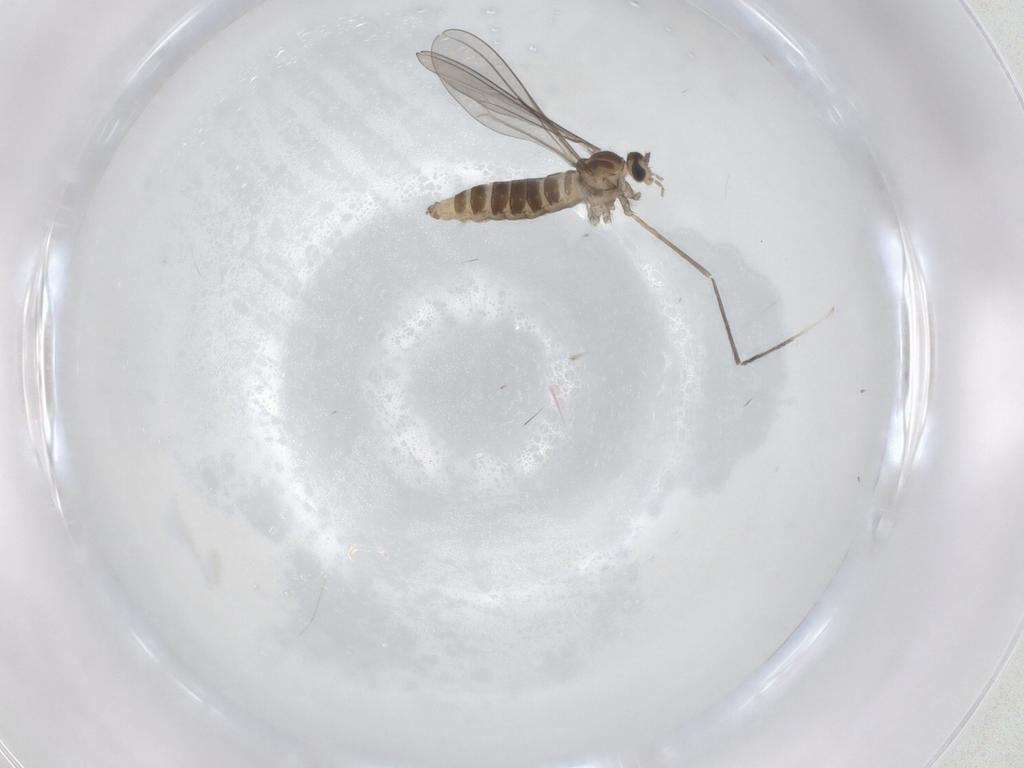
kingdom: Animalia
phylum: Arthropoda
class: Insecta
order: Diptera
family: Cecidomyiidae
